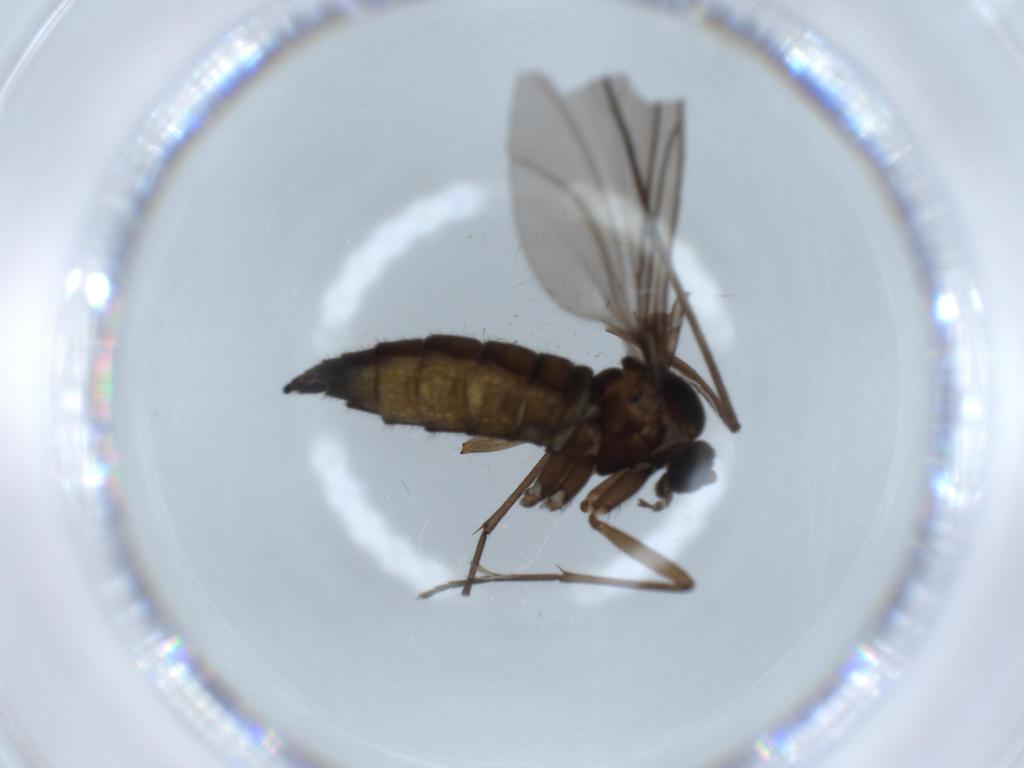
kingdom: Animalia
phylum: Arthropoda
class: Insecta
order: Diptera
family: Sciaridae
